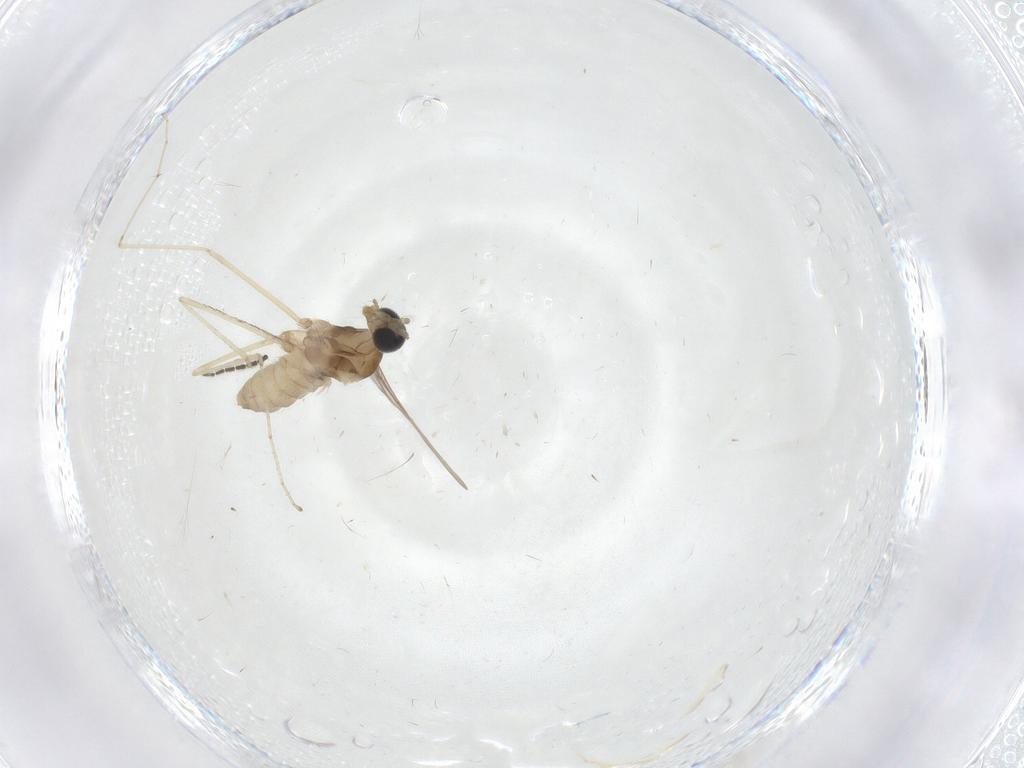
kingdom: Animalia
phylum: Arthropoda
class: Insecta
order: Diptera
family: Cecidomyiidae
